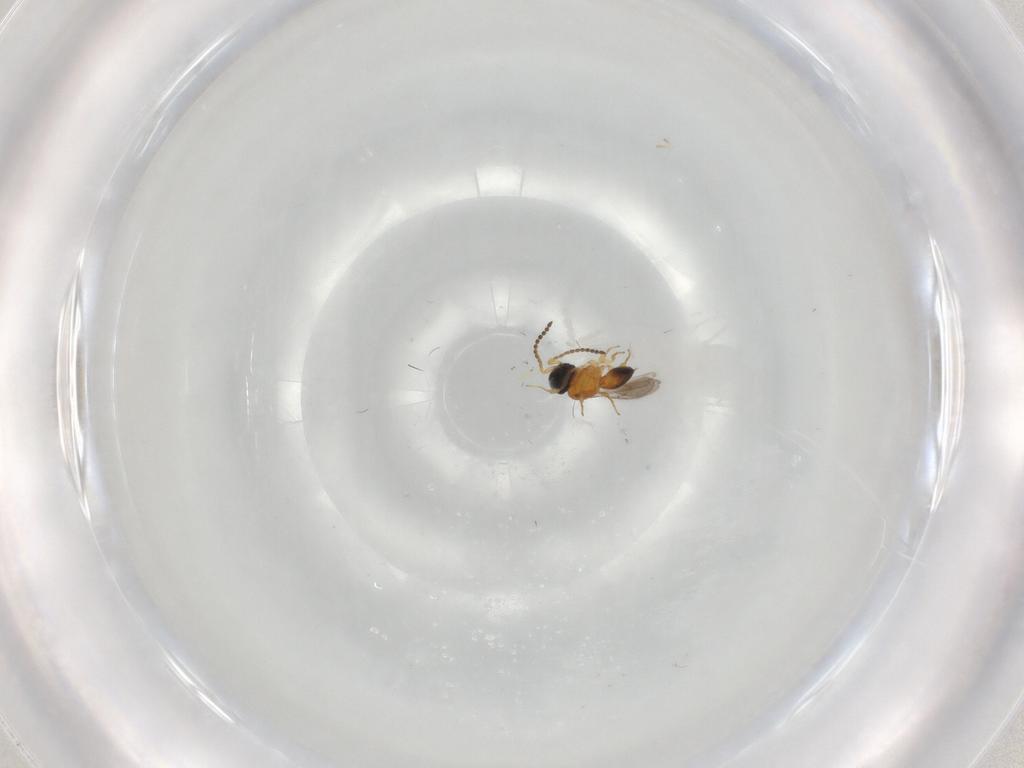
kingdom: Animalia
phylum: Arthropoda
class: Insecta
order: Hymenoptera
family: Scelionidae
